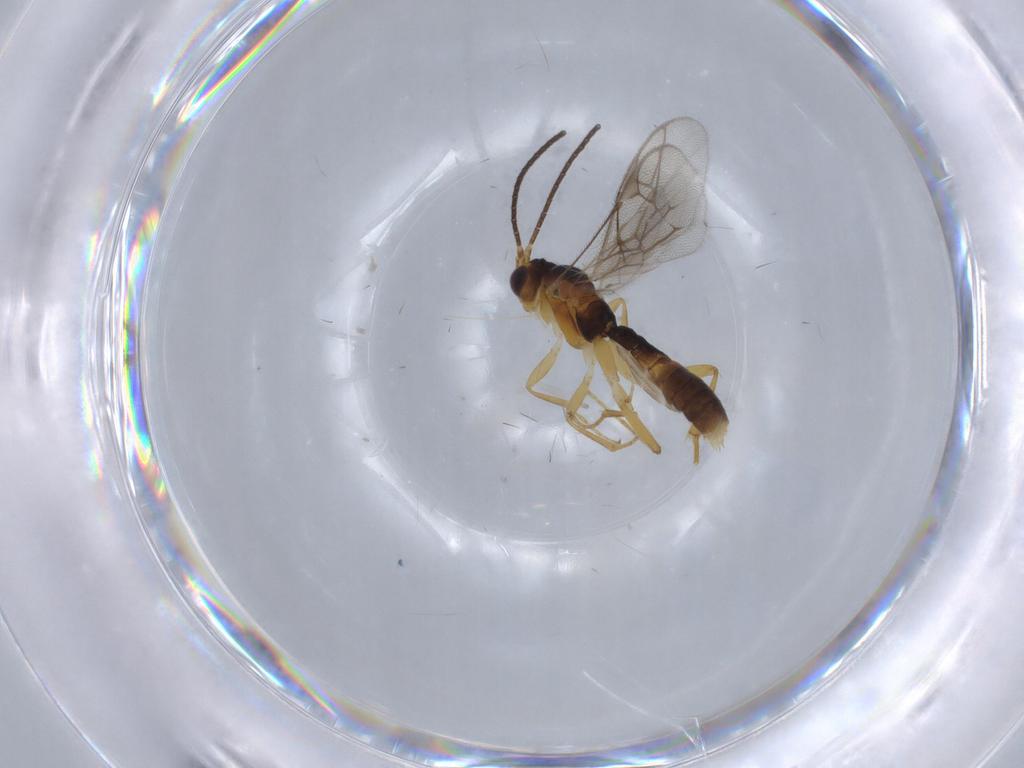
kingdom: Animalia
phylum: Arthropoda
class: Insecta
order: Hymenoptera
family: Ichneumonidae
